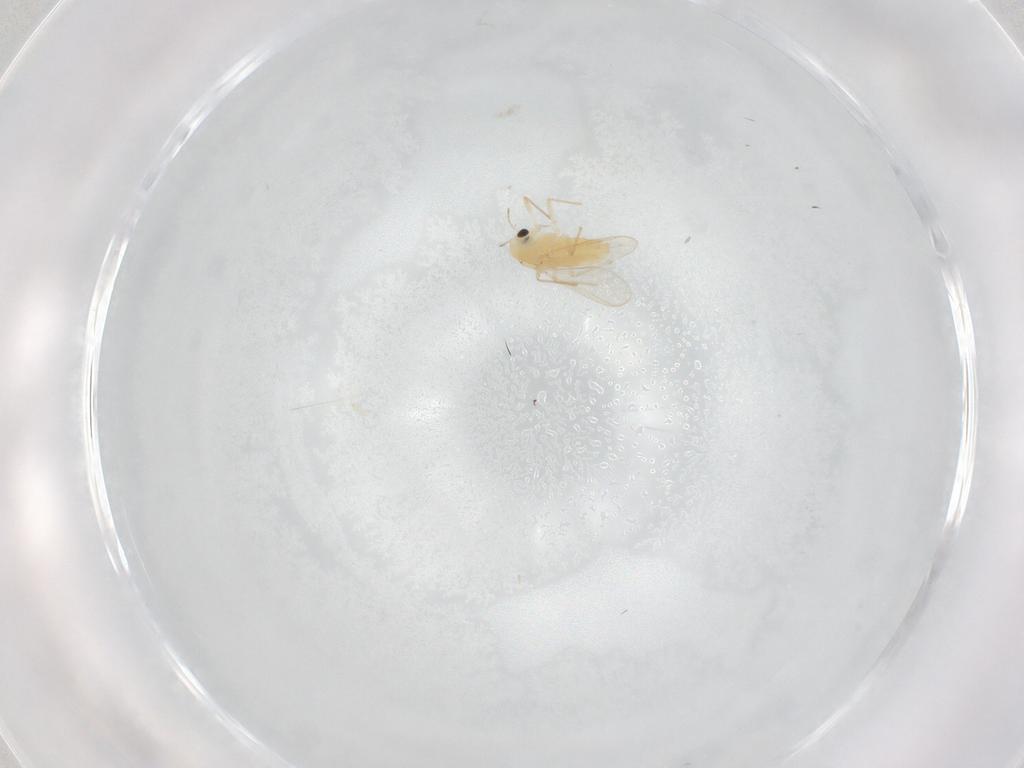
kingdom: Animalia
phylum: Arthropoda
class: Insecta
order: Diptera
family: Chironomidae
